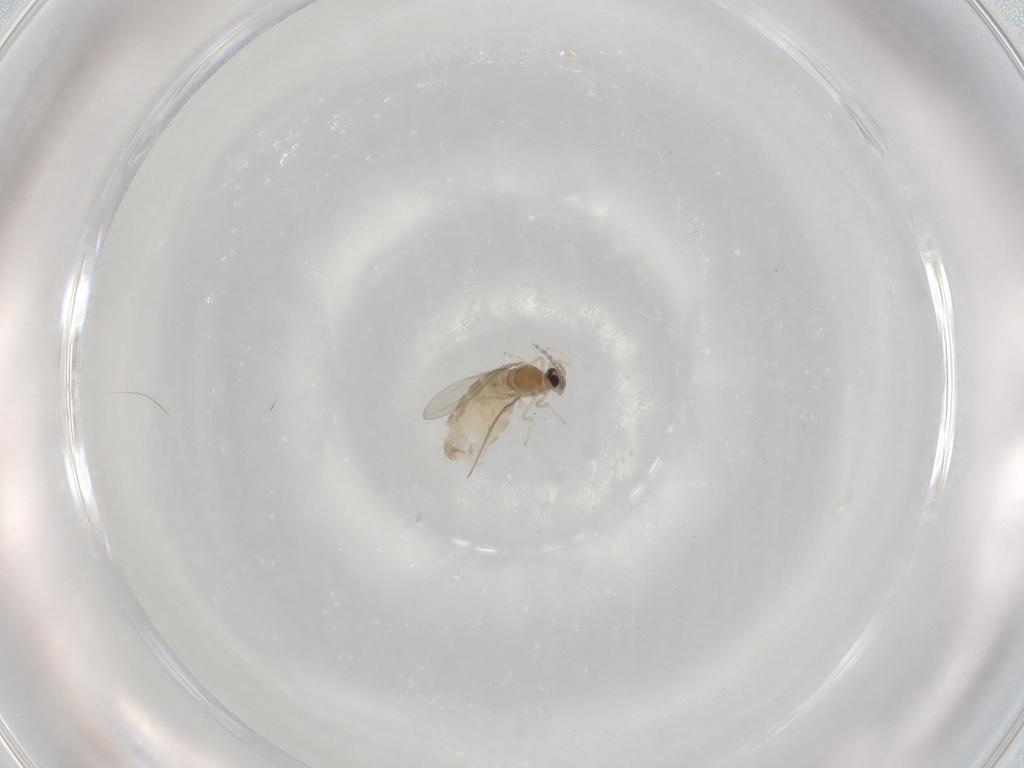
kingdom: Animalia
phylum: Arthropoda
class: Insecta
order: Diptera
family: Cecidomyiidae
